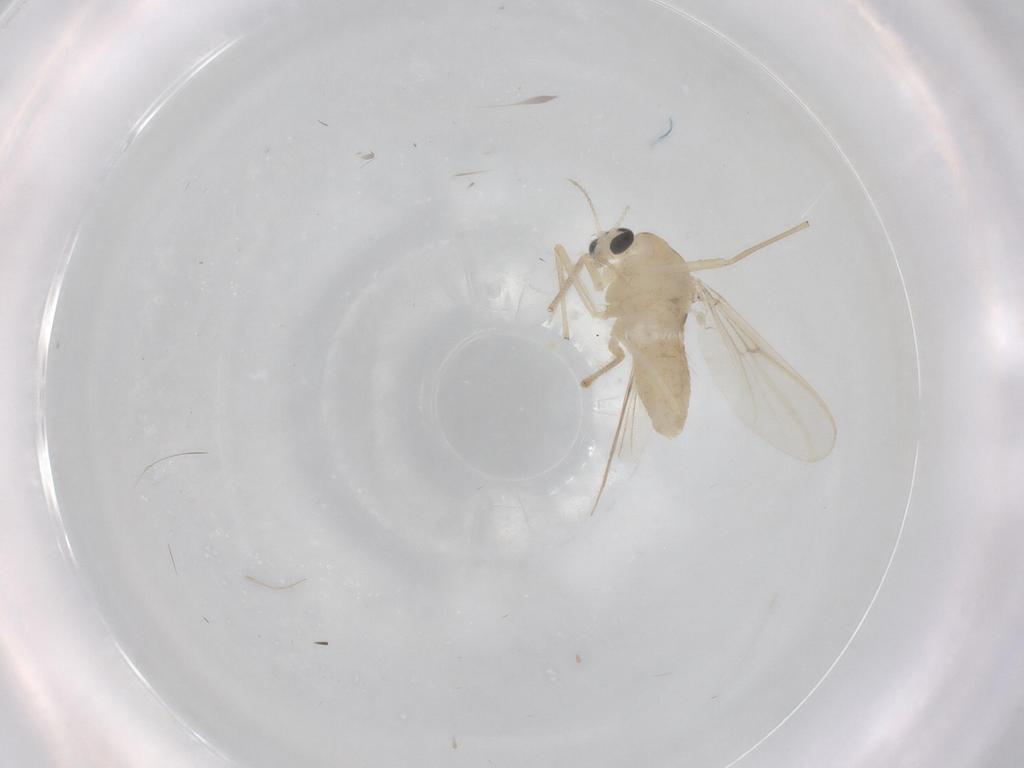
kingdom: Animalia
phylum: Arthropoda
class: Insecta
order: Diptera
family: Chironomidae
